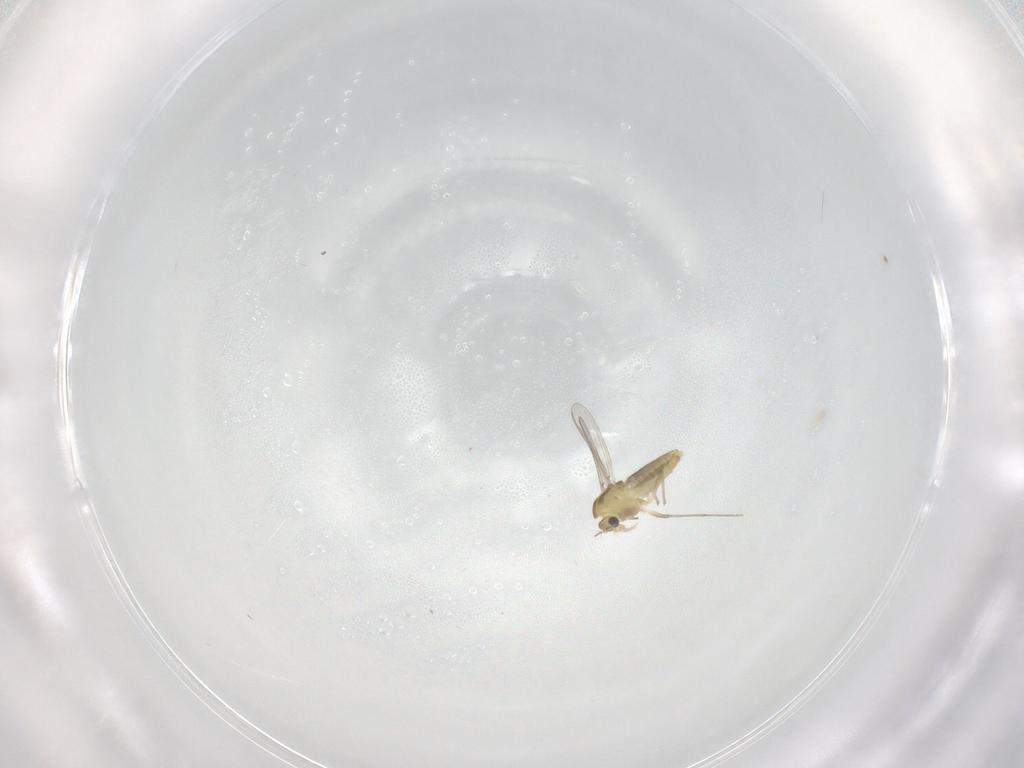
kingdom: Animalia
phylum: Arthropoda
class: Insecta
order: Diptera
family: Chironomidae
